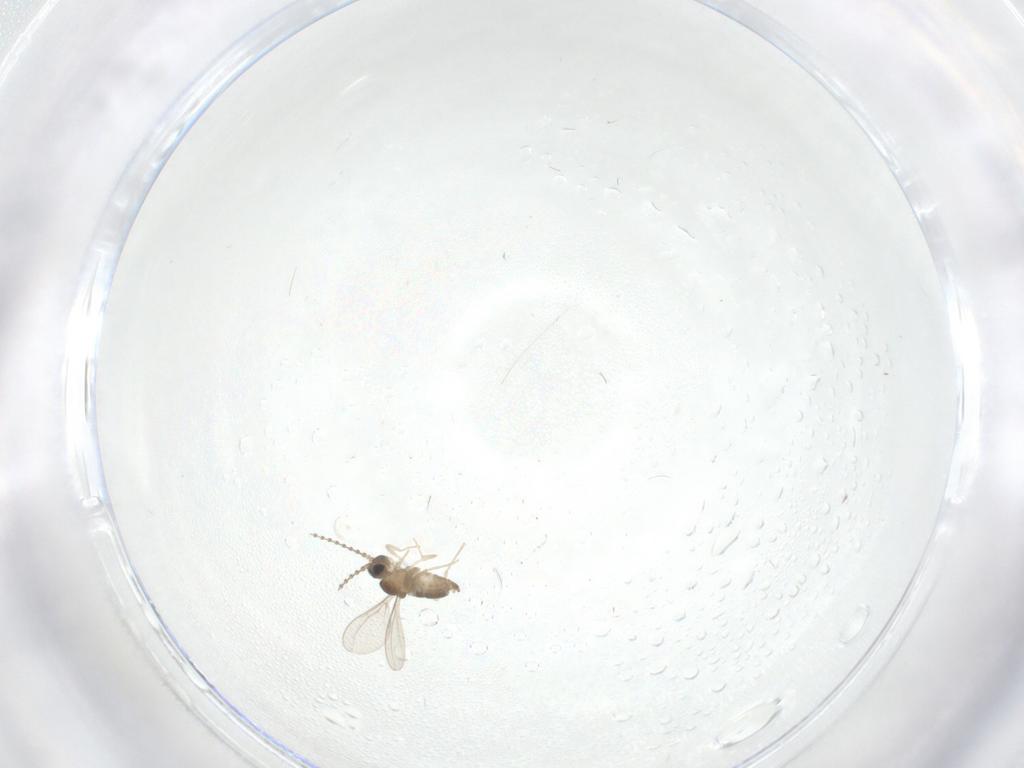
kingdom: Animalia
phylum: Arthropoda
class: Insecta
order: Diptera
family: Cecidomyiidae
